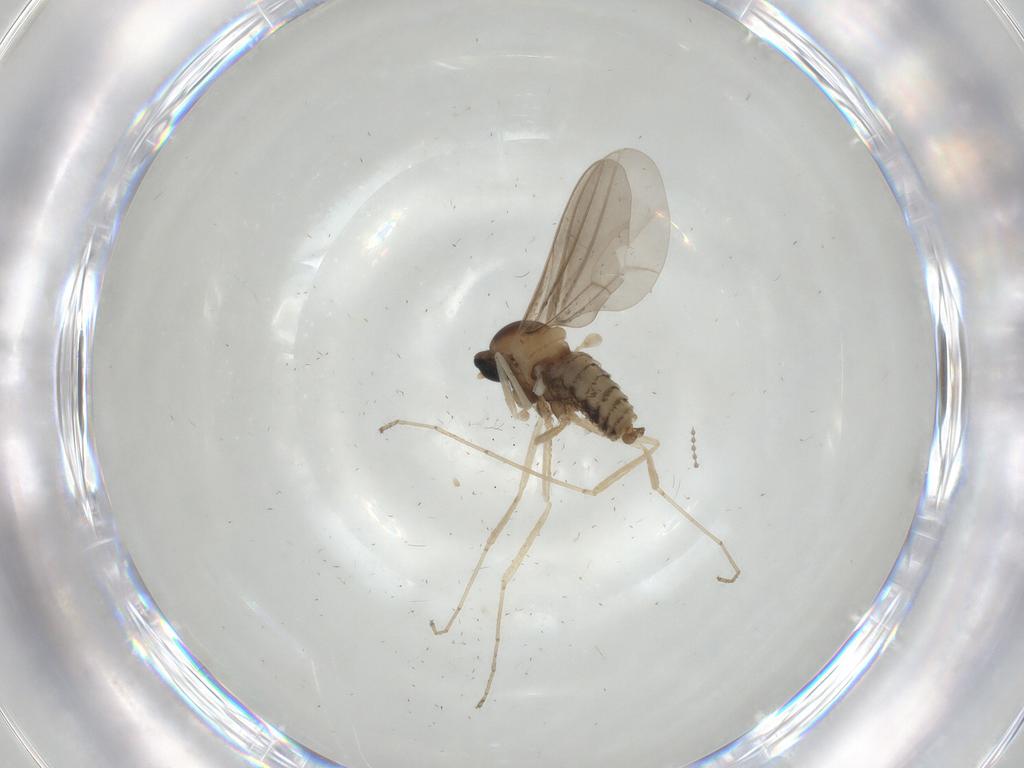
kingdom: Animalia
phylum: Arthropoda
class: Insecta
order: Diptera
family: Cecidomyiidae
